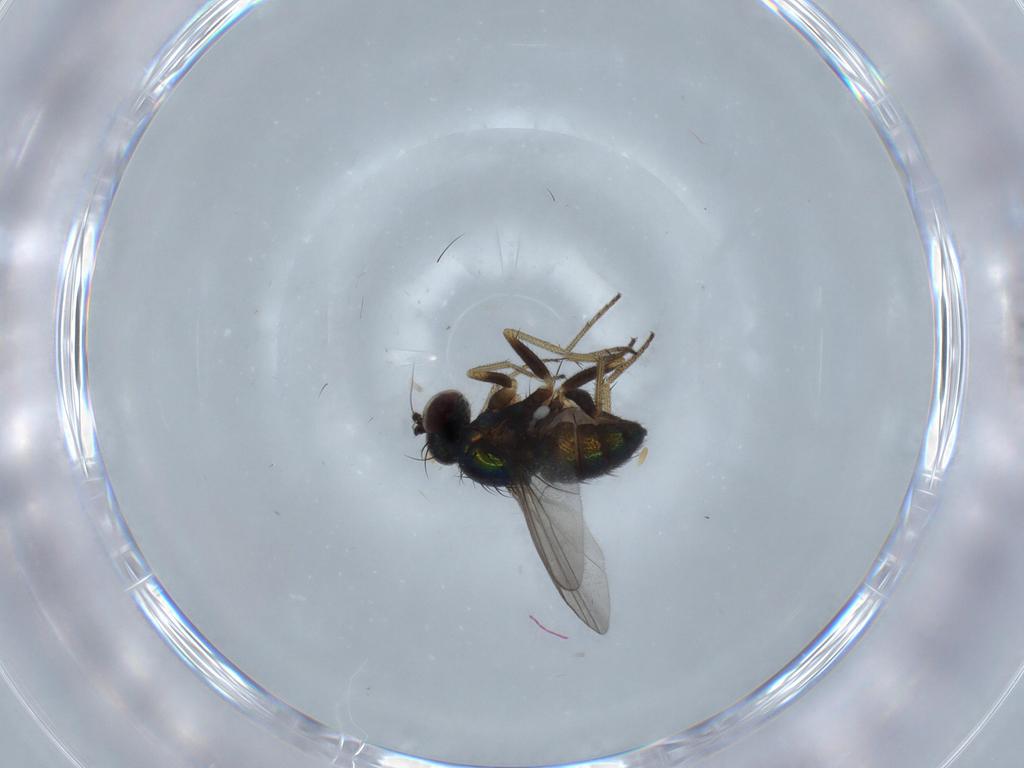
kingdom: Animalia
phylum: Arthropoda
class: Insecta
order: Diptera
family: Dolichopodidae
